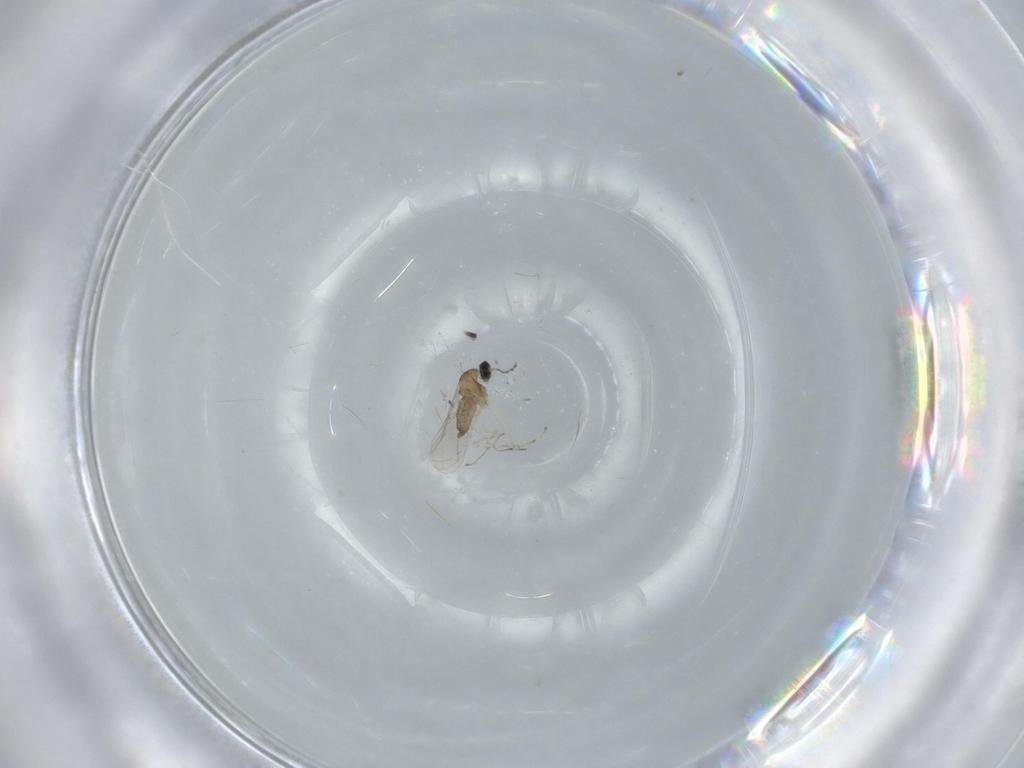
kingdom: Animalia
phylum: Arthropoda
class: Insecta
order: Diptera
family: Cecidomyiidae
